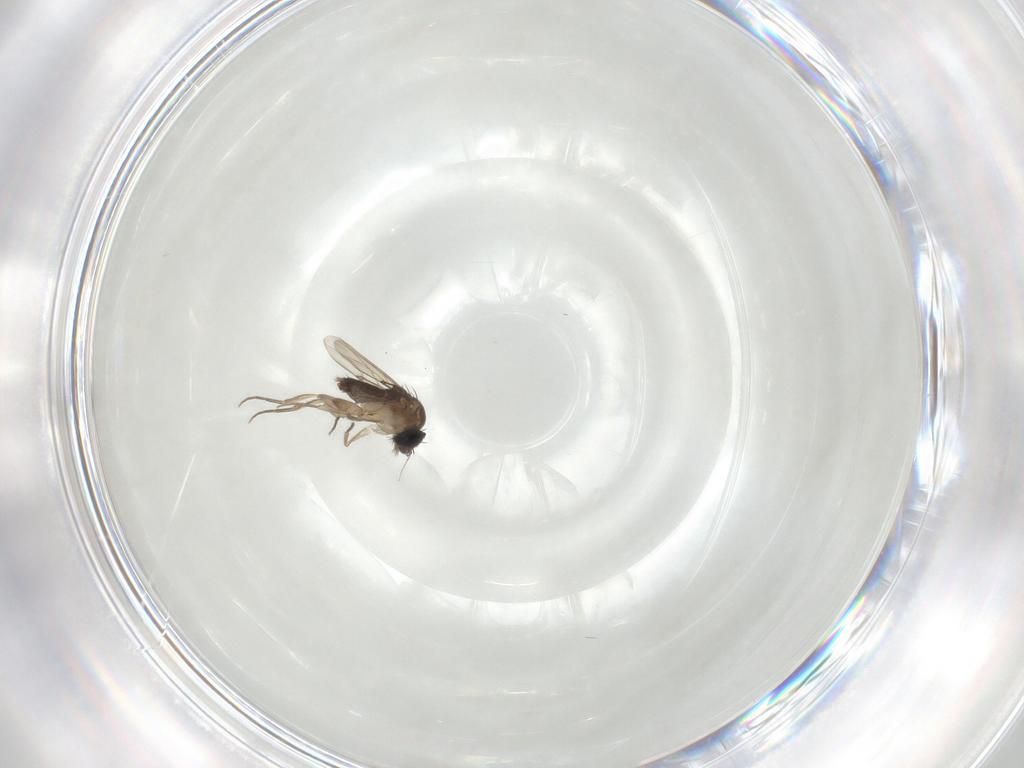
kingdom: Animalia
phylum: Arthropoda
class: Insecta
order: Diptera
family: Phoridae
